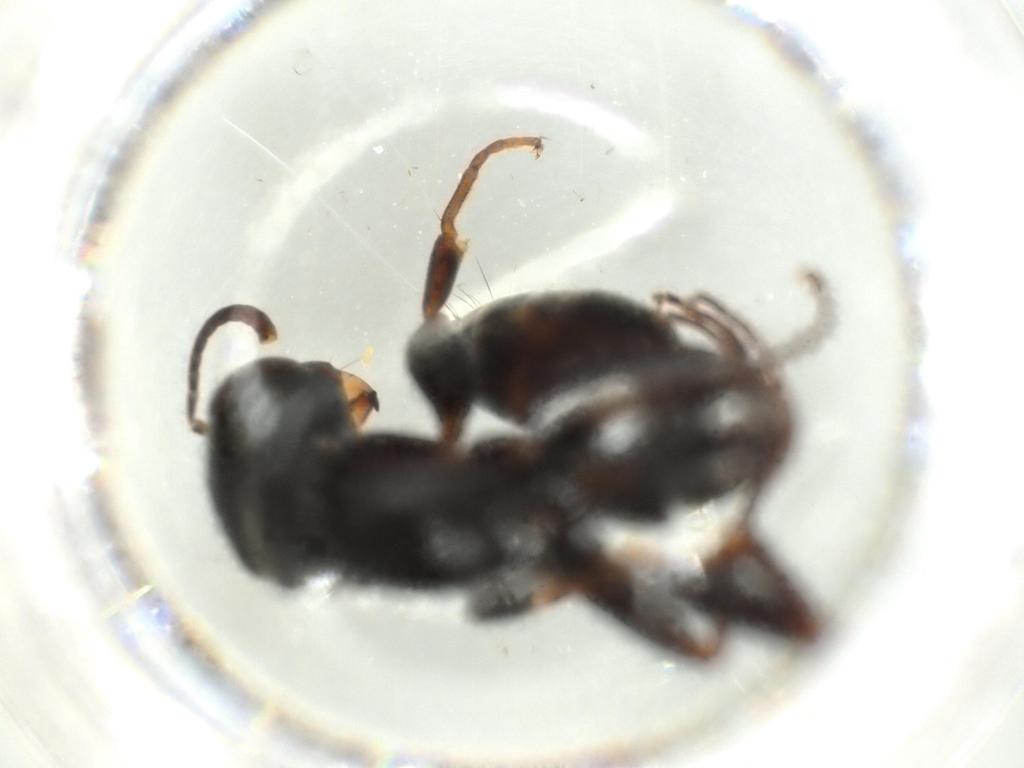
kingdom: Animalia
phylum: Arthropoda
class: Insecta
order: Hymenoptera
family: Formicidae
